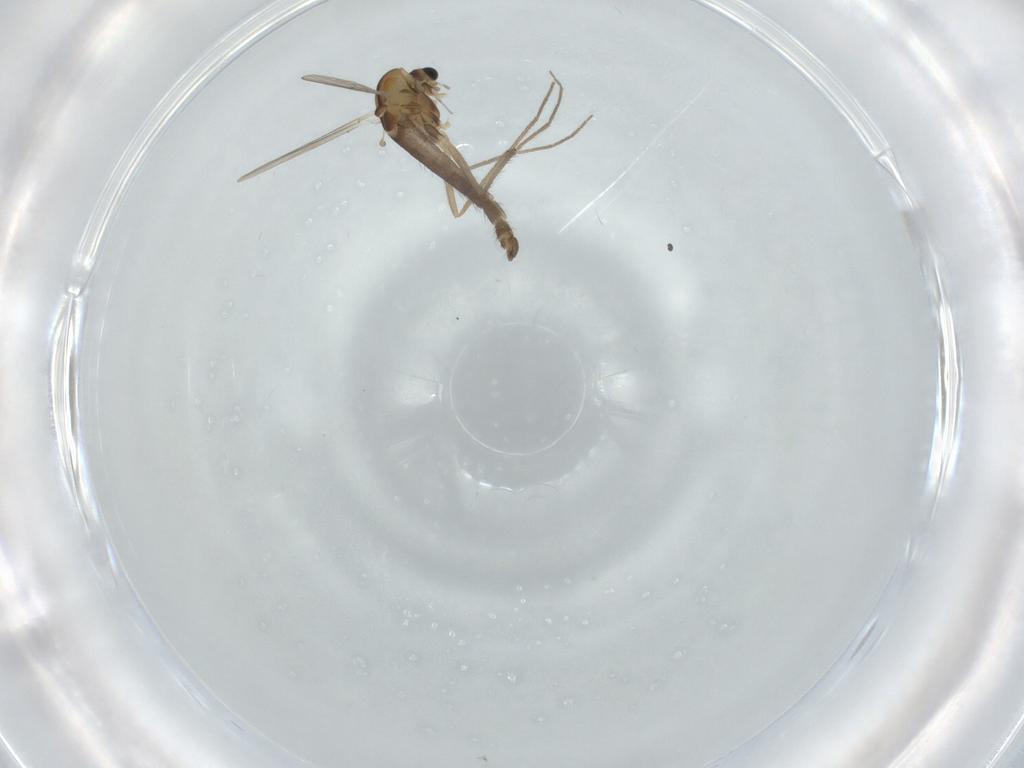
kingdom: Animalia
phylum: Arthropoda
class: Insecta
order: Diptera
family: Chironomidae
